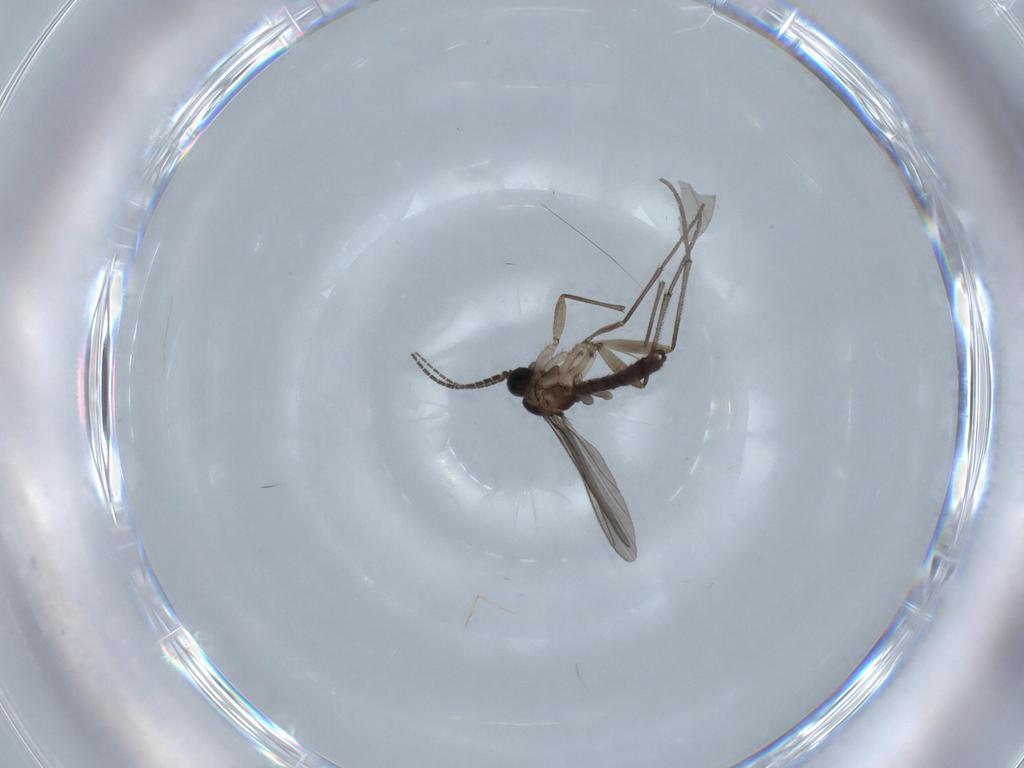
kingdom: Animalia
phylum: Arthropoda
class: Insecta
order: Diptera
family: Sciaridae
